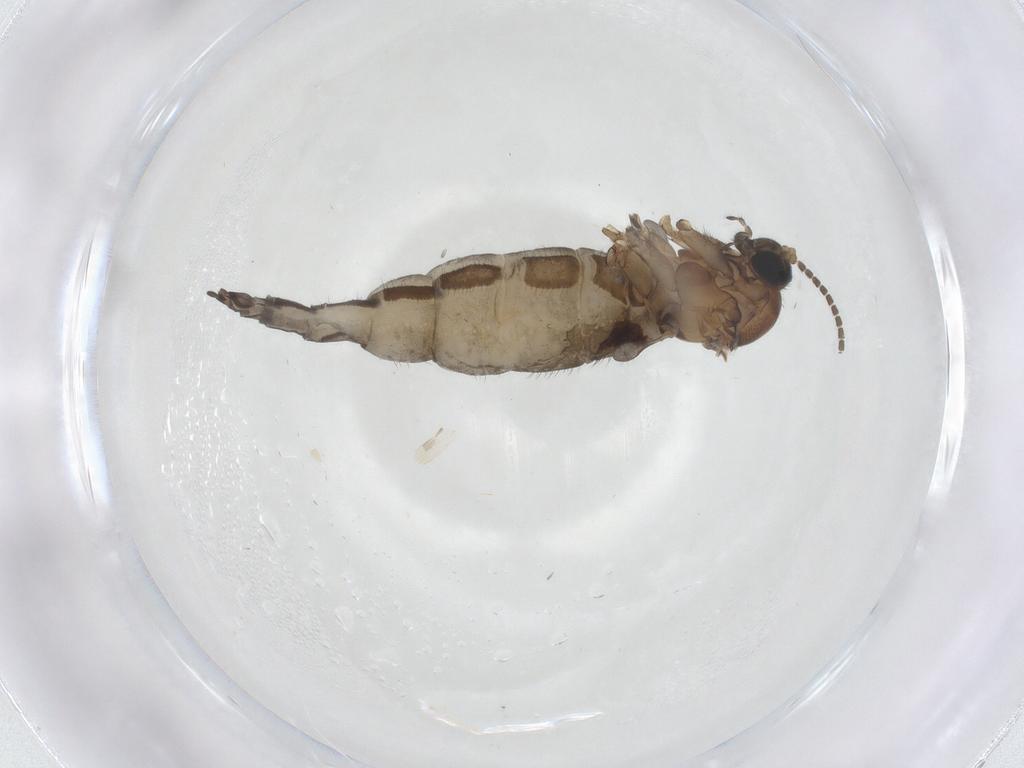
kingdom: Animalia
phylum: Arthropoda
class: Insecta
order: Diptera
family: Sciaridae
